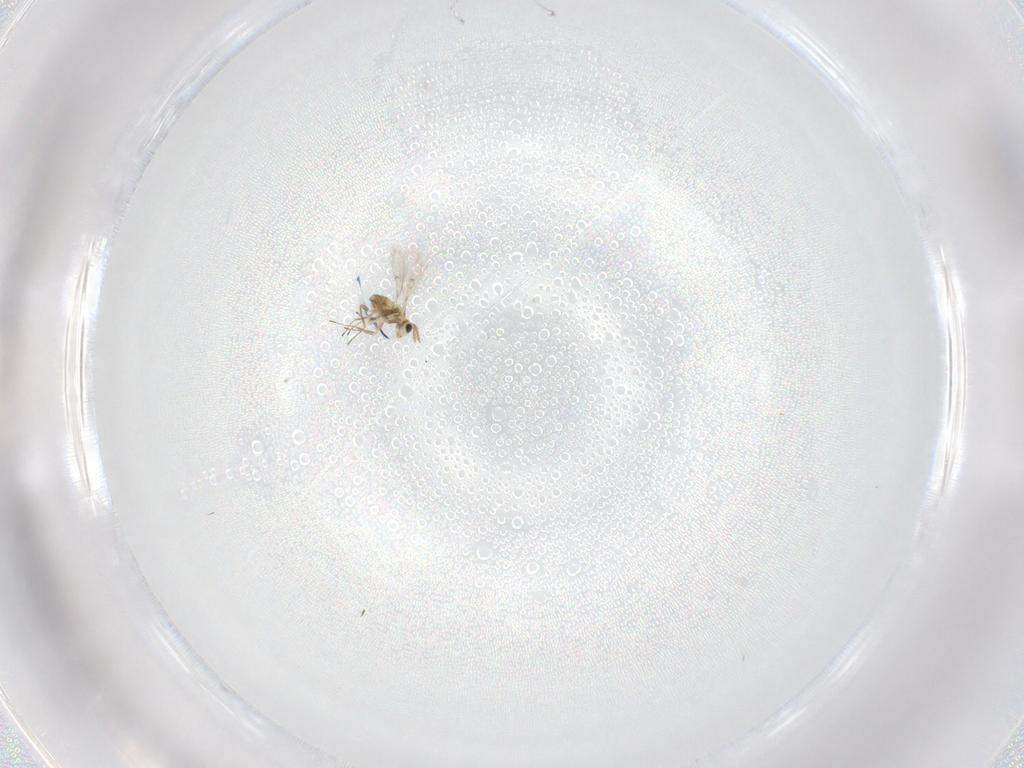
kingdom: Animalia
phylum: Arthropoda
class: Insecta
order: Hymenoptera
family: Trichogrammatidae
